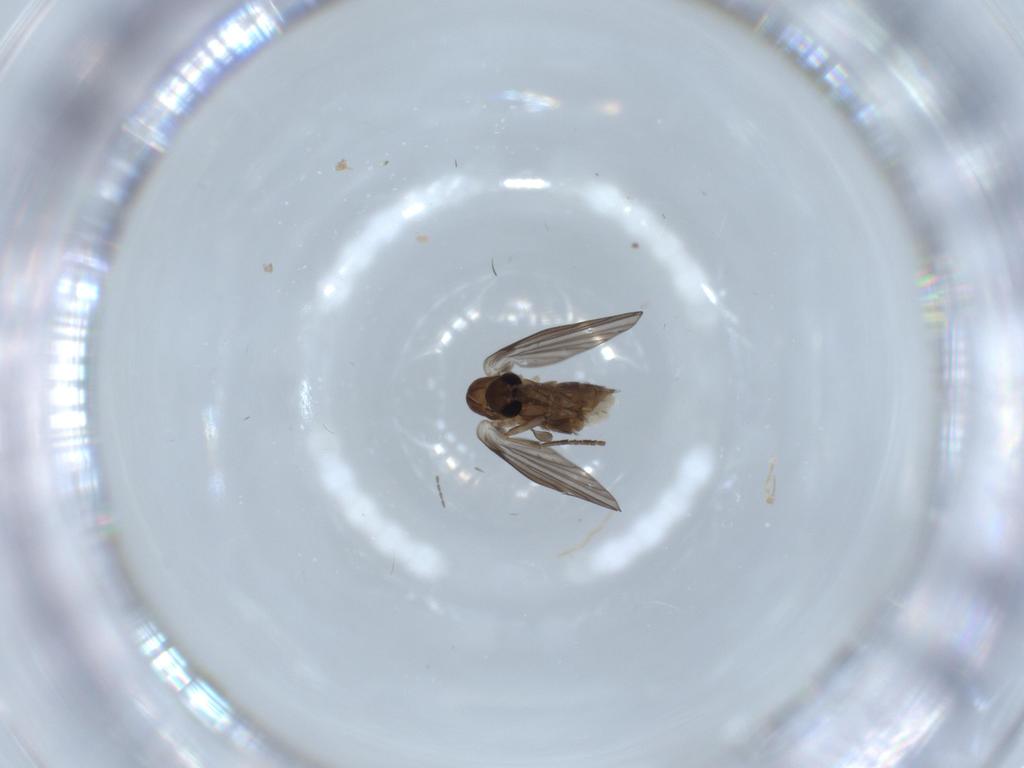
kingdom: Animalia
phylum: Arthropoda
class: Insecta
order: Diptera
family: Psychodidae
